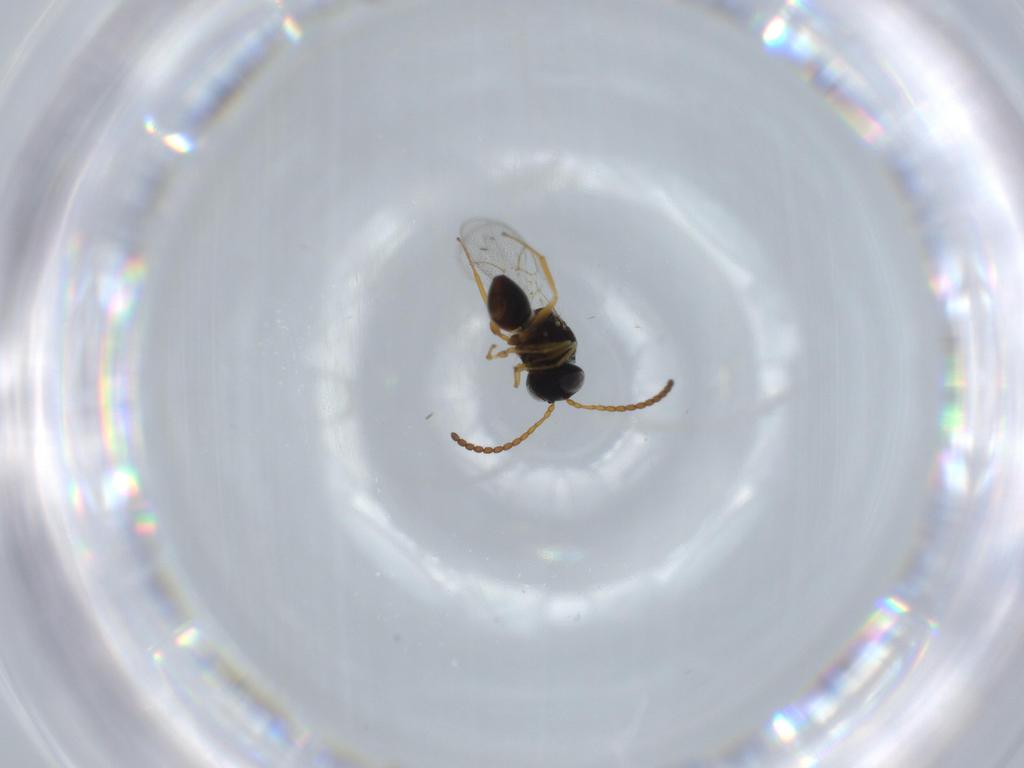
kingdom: Animalia
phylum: Arthropoda
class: Insecta
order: Hymenoptera
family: Figitidae
